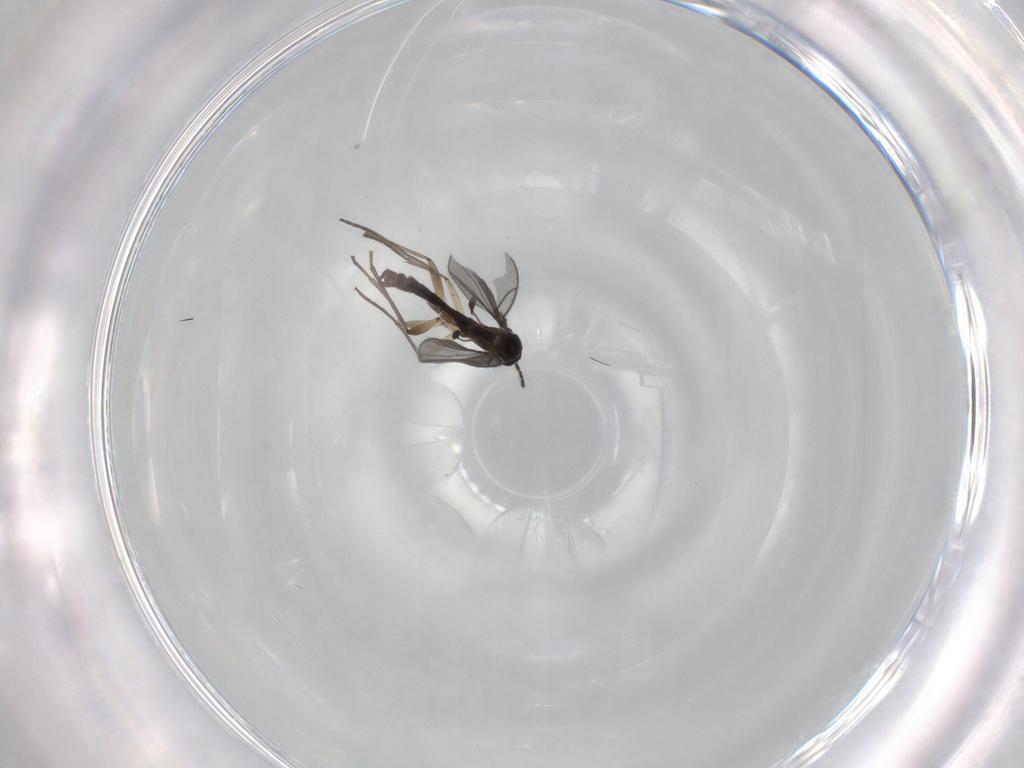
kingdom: Animalia
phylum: Arthropoda
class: Insecta
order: Diptera
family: Sciaridae
